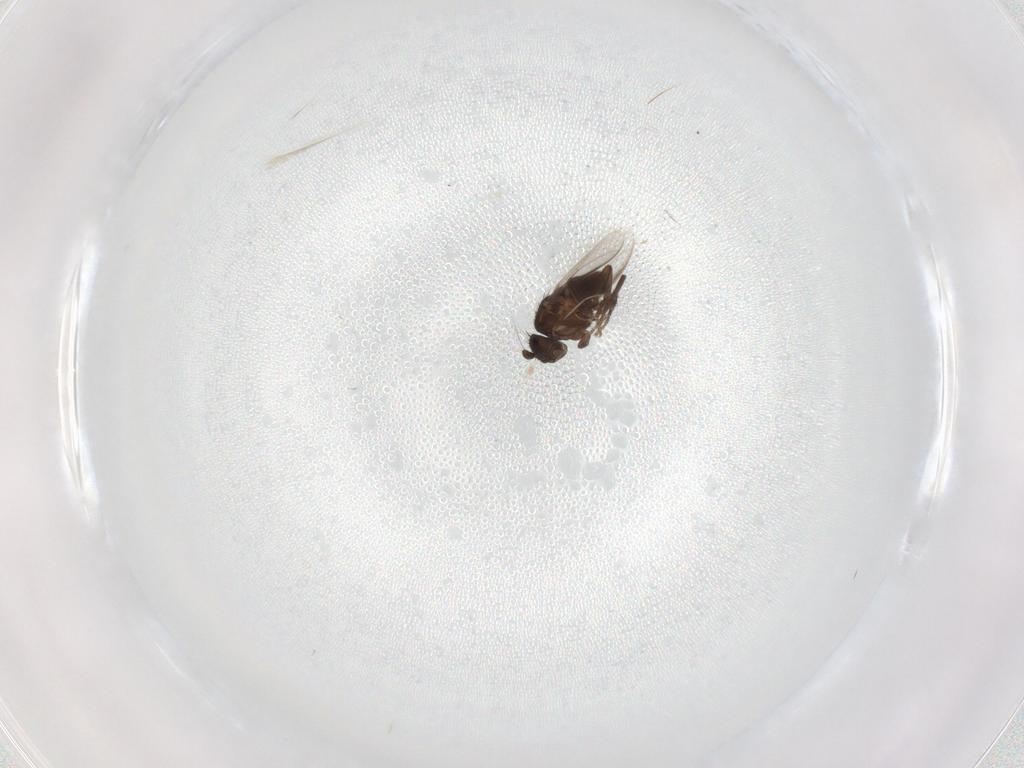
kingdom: Animalia
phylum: Arthropoda
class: Insecta
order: Diptera
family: Sphaeroceridae
